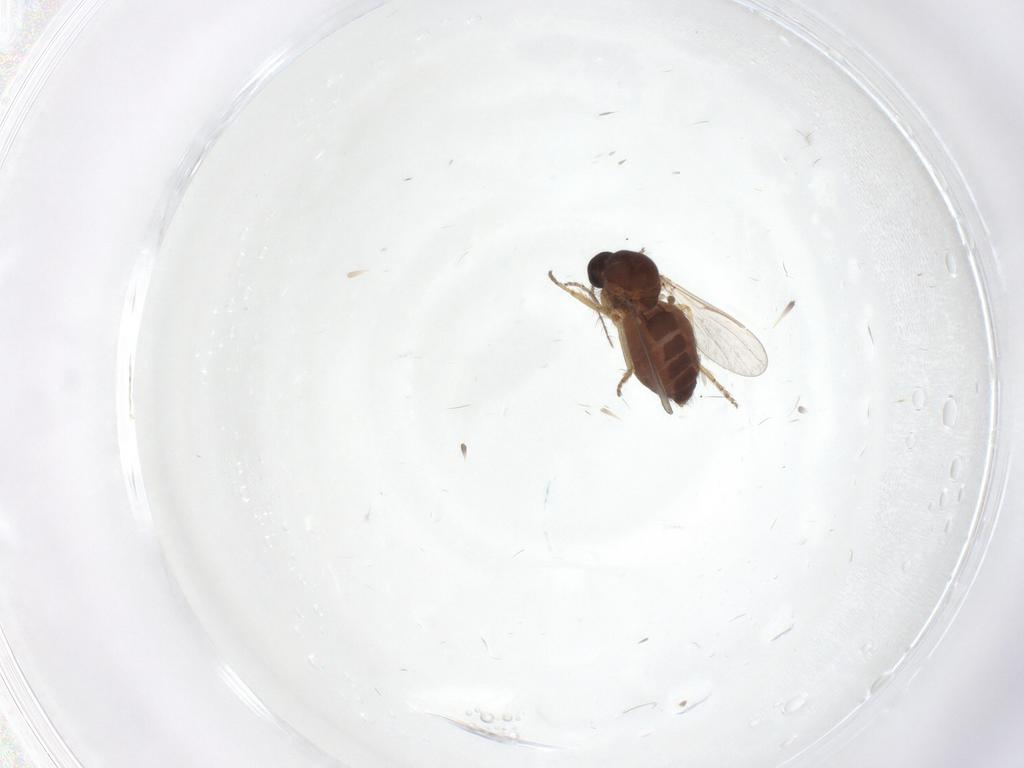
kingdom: Animalia
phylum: Arthropoda
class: Insecta
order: Diptera
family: Ceratopogonidae
